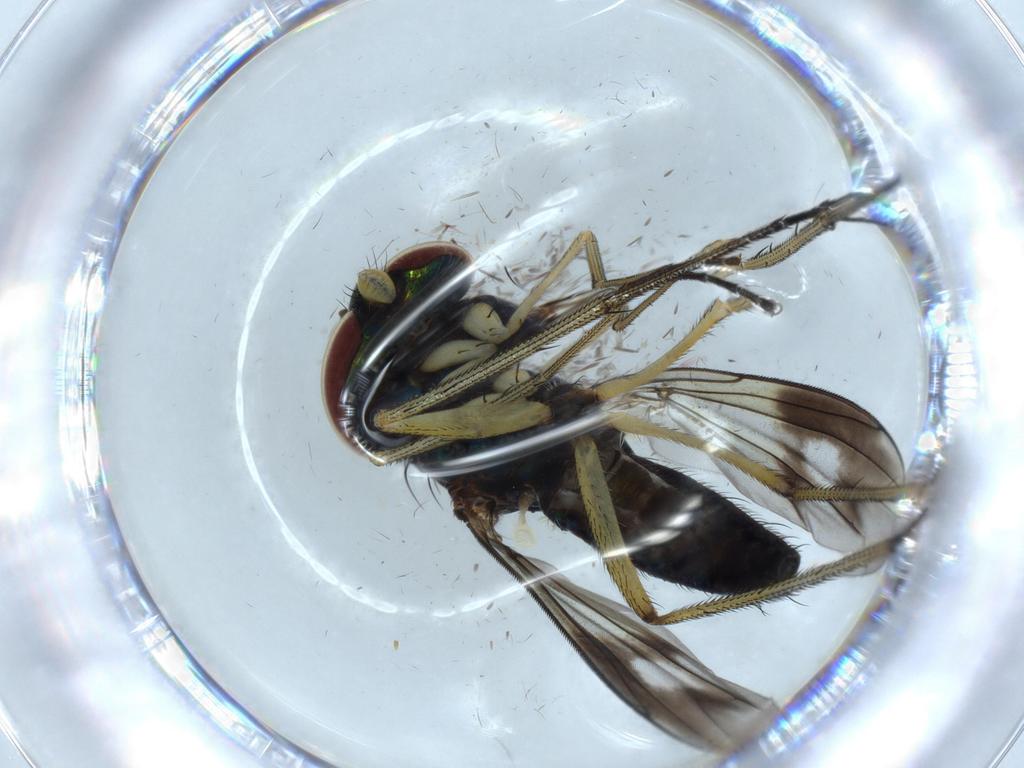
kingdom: Animalia
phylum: Arthropoda
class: Insecta
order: Diptera
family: Dolichopodidae
